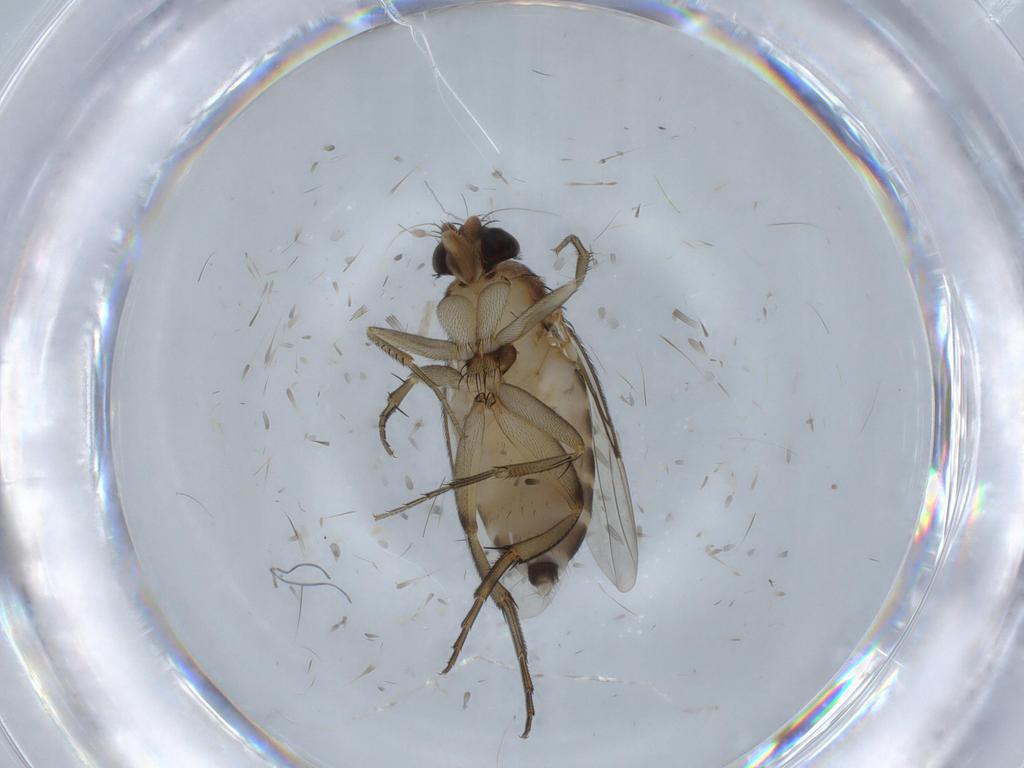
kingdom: Animalia
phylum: Arthropoda
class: Insecta
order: Diptera
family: Phoridae
